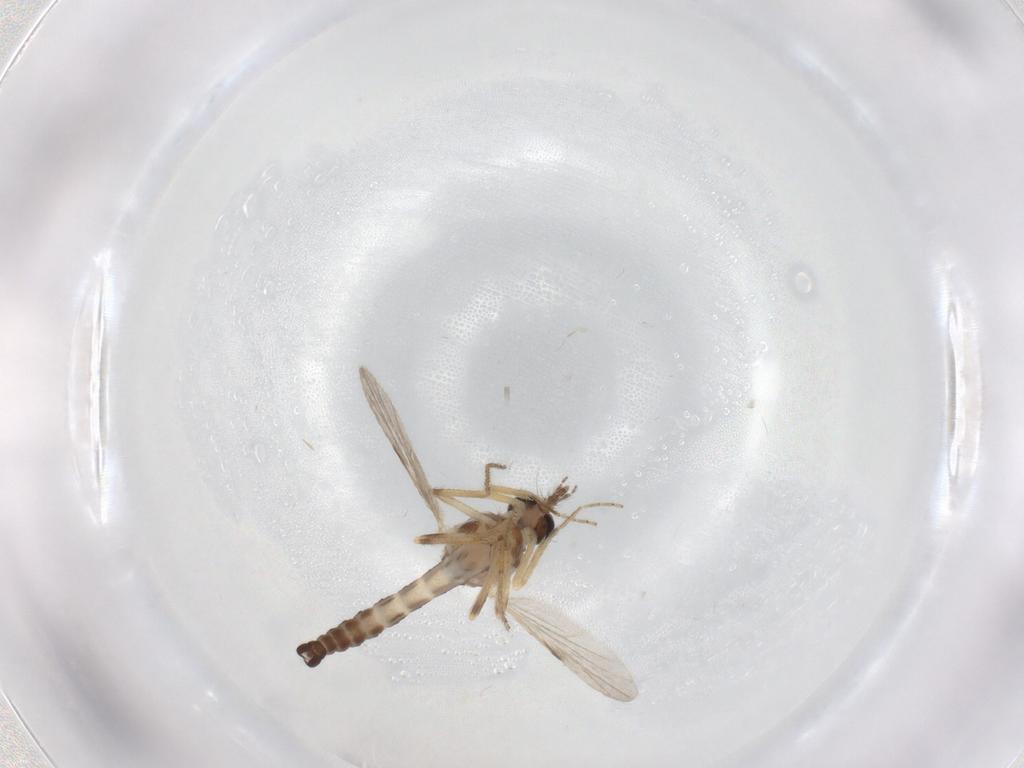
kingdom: Animalia
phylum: Arthropoda
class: Insecta
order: Diptera
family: Ceratopogonidae
